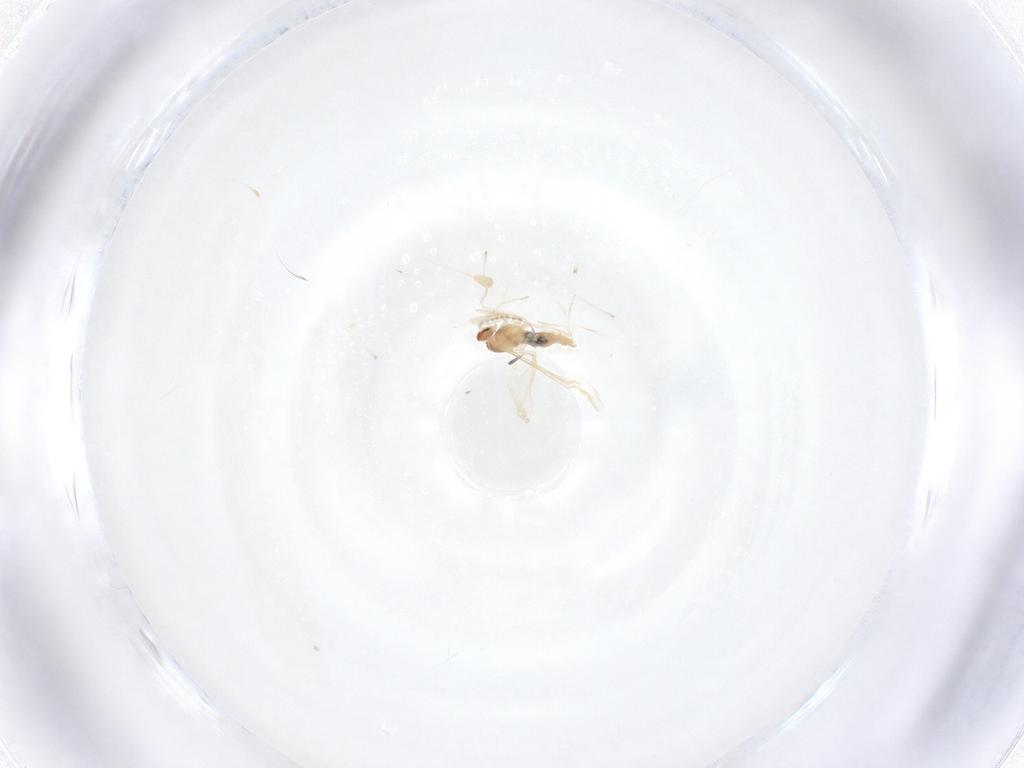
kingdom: Animalia
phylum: Arthropoda
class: Insecta
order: Diptera
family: Cecidomyiidae
